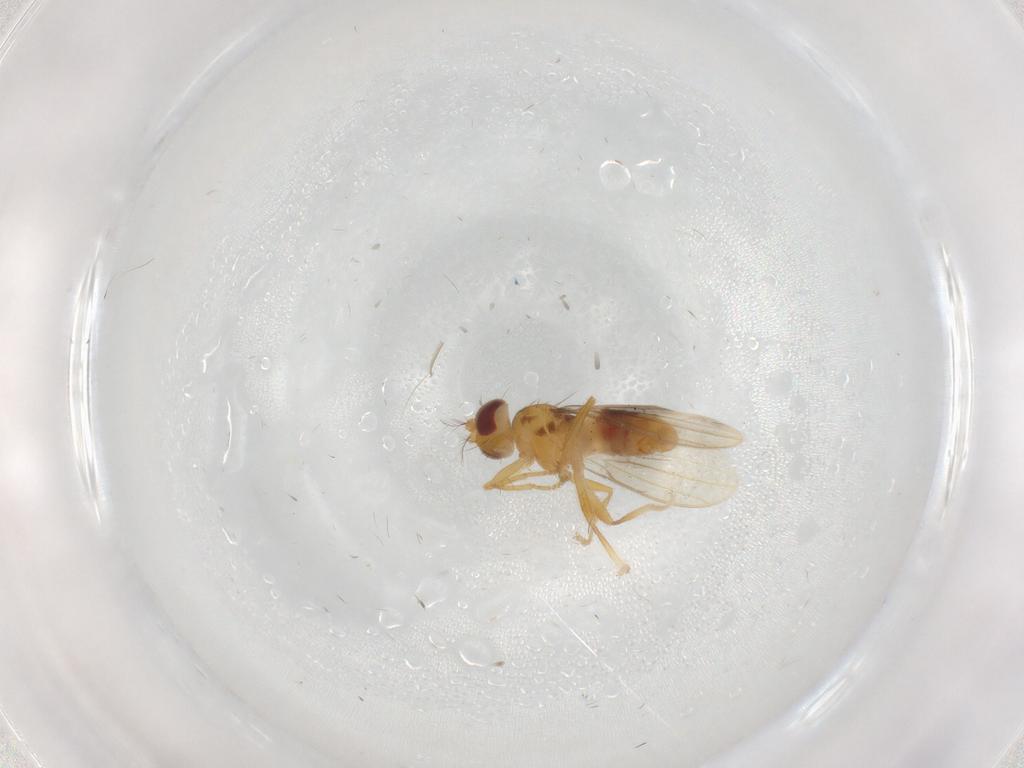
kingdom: Animalia
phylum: Arthropoda
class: Insecta
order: Diptera
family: Periscelididae
